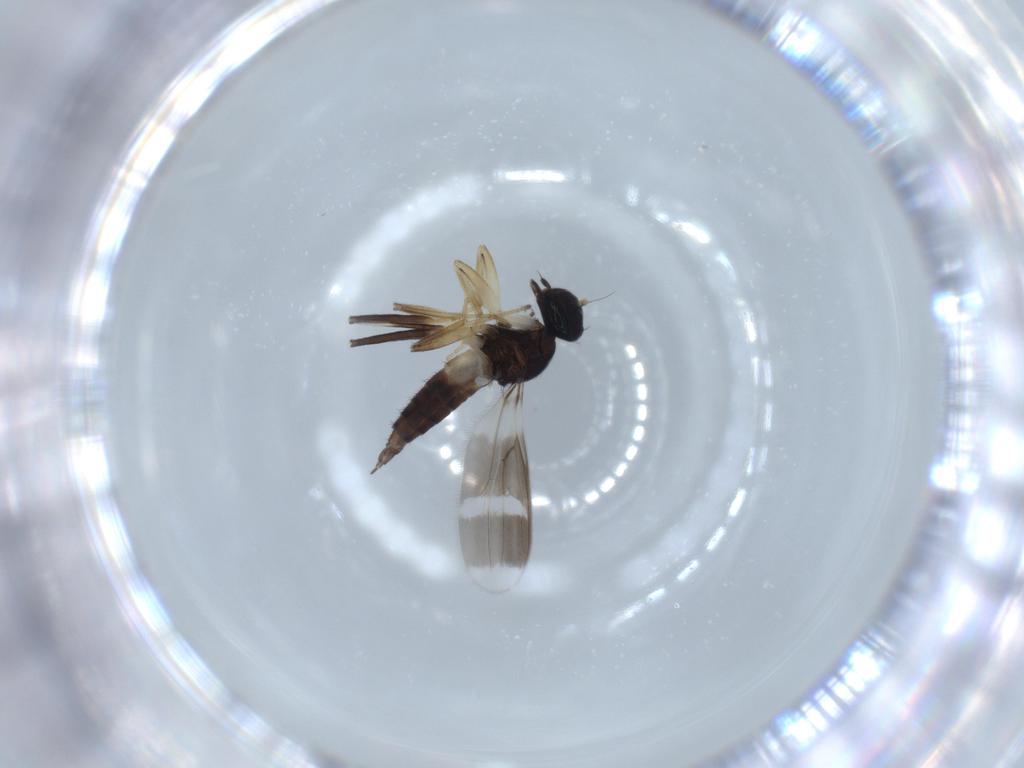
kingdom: Animalia
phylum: Arthropoda
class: Insecta
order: Diptera
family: Hybotidae
